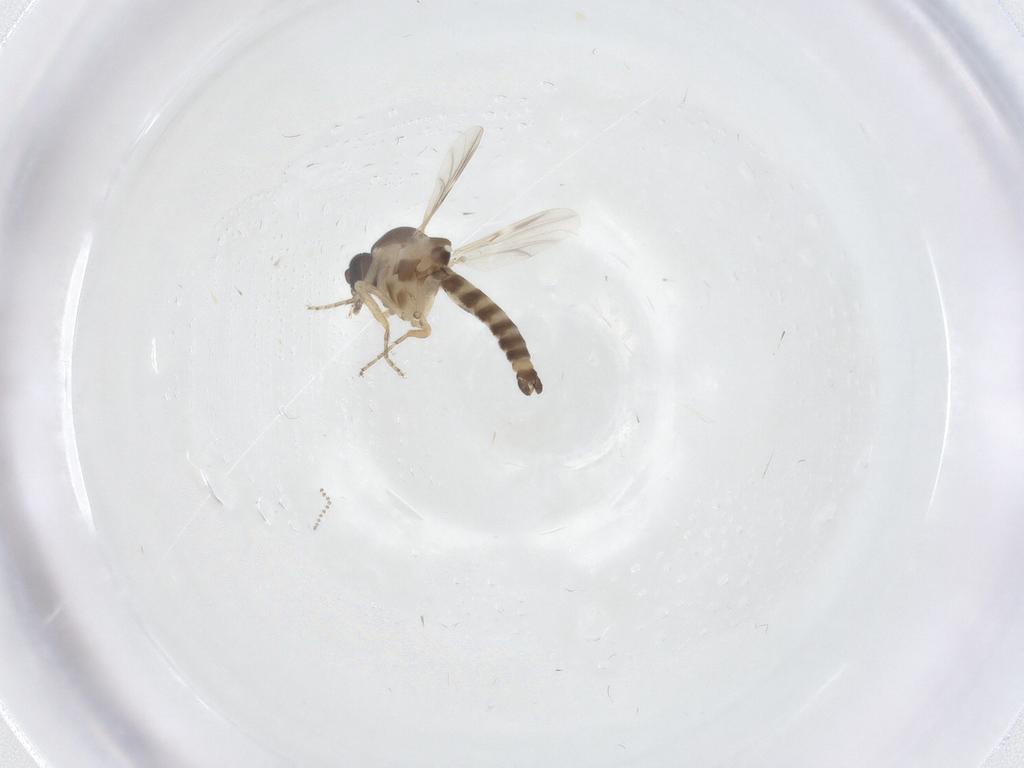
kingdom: Animalia
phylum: Arthropoda
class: Insecta
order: Diptera
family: Ceratopogonidae
